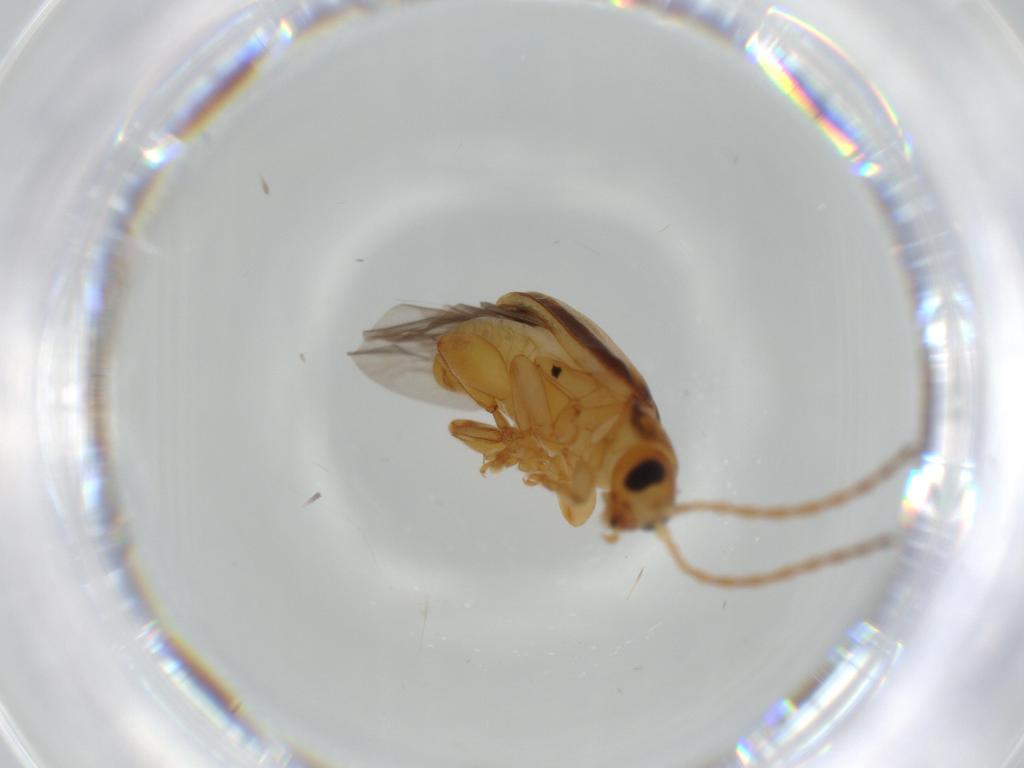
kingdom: Animalia
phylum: Arthropoda
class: Insecta
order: Coleoptera
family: Chrysomelidae
